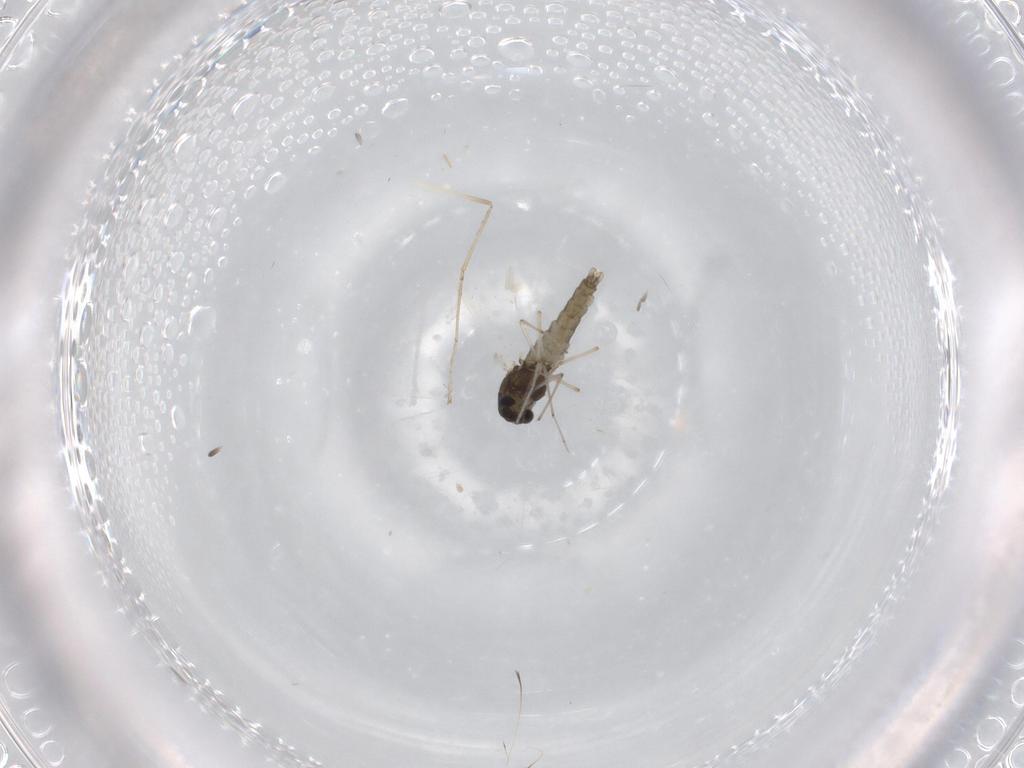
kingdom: Animalia
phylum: Arthropoda
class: Insecta
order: Diptera
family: Chironomidae
